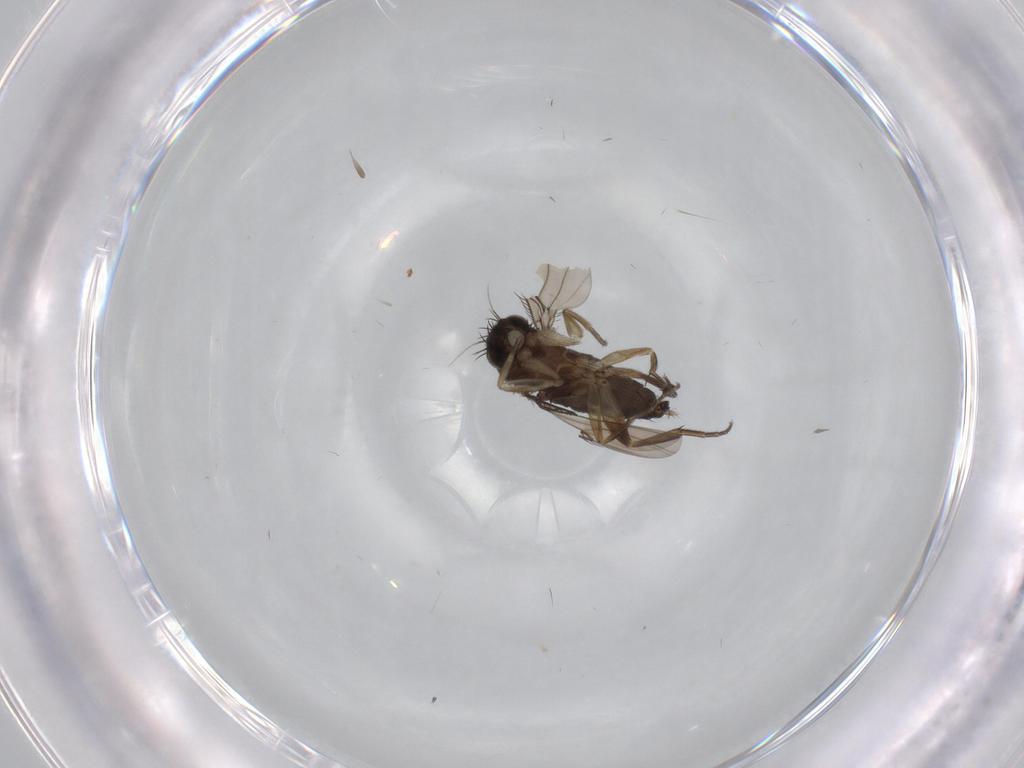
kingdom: Animalia
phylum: Arthropoda
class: Insecta
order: Diptera
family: Phoridae
